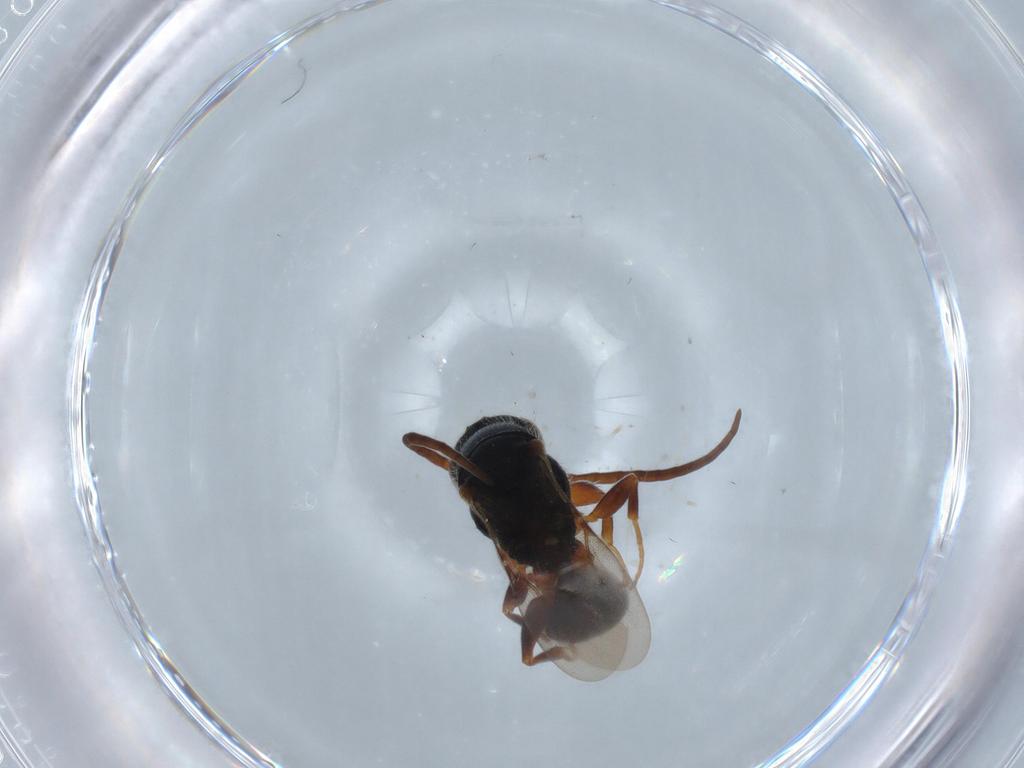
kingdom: Animalia
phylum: Arthropoda
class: Insecta
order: Hymenoptera
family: Bethylidae
